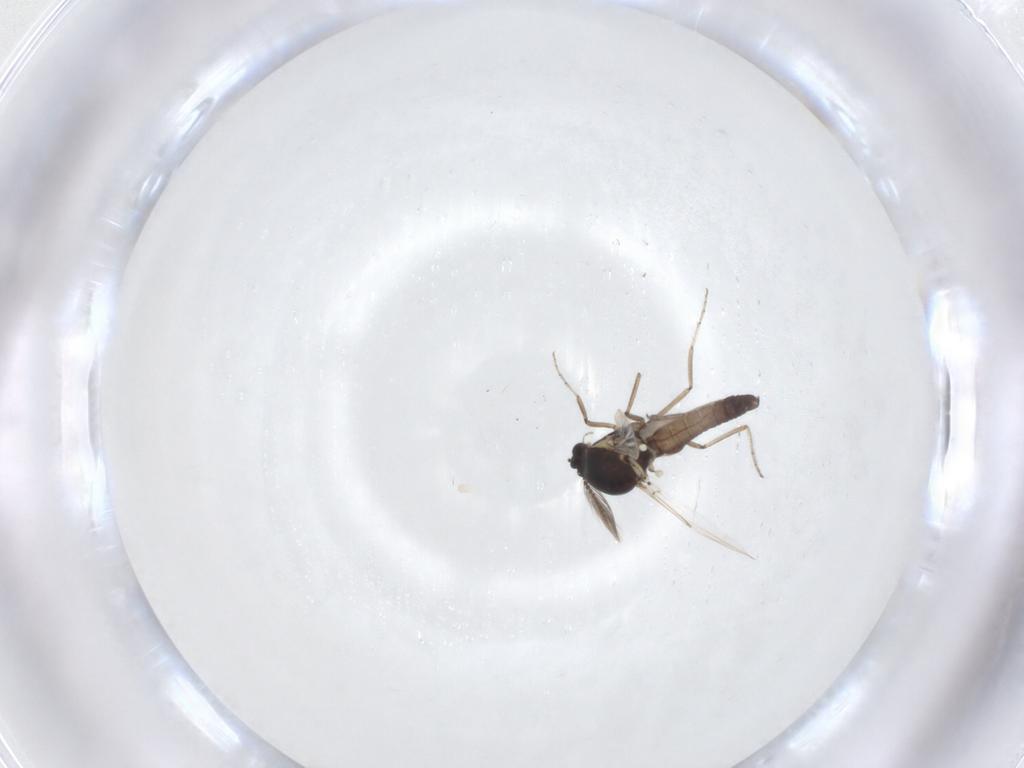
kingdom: Animalia
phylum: Arthropoda
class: Insecta
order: Diptera
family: Ceratopogonidae
